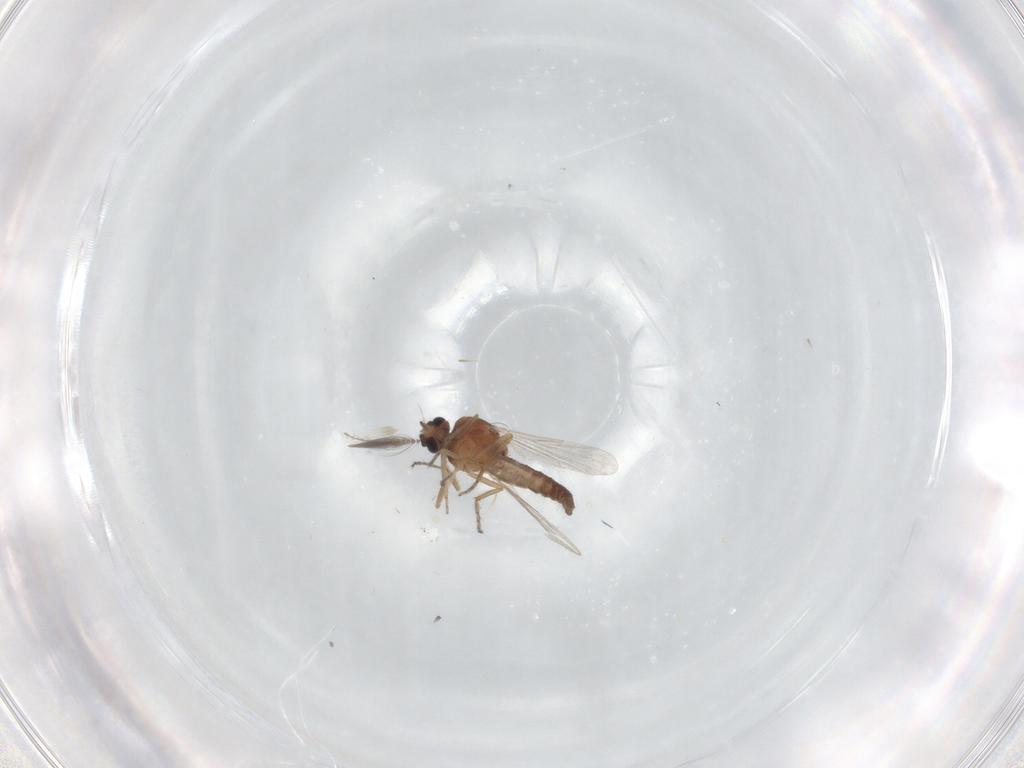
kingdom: Animalia
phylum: Arthropoda
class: Insecta
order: Diptera
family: Ceratopogonidae
